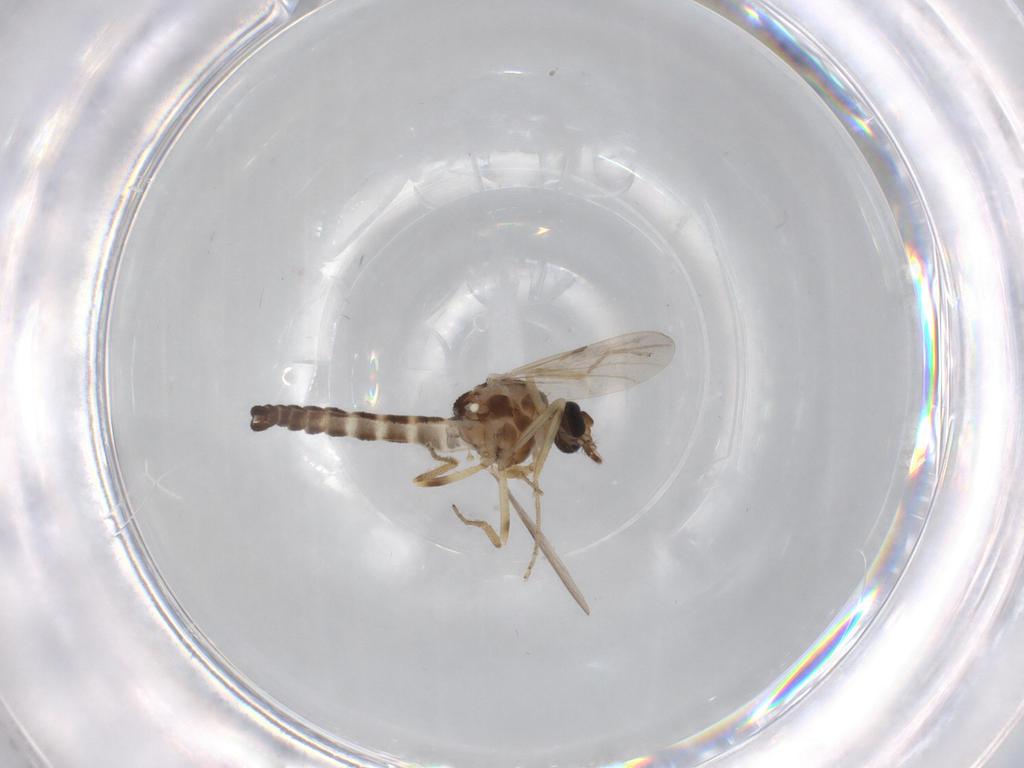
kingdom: Animalia
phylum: Arthropoda
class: Insecta
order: Diptera
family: Ceratopogonidae
